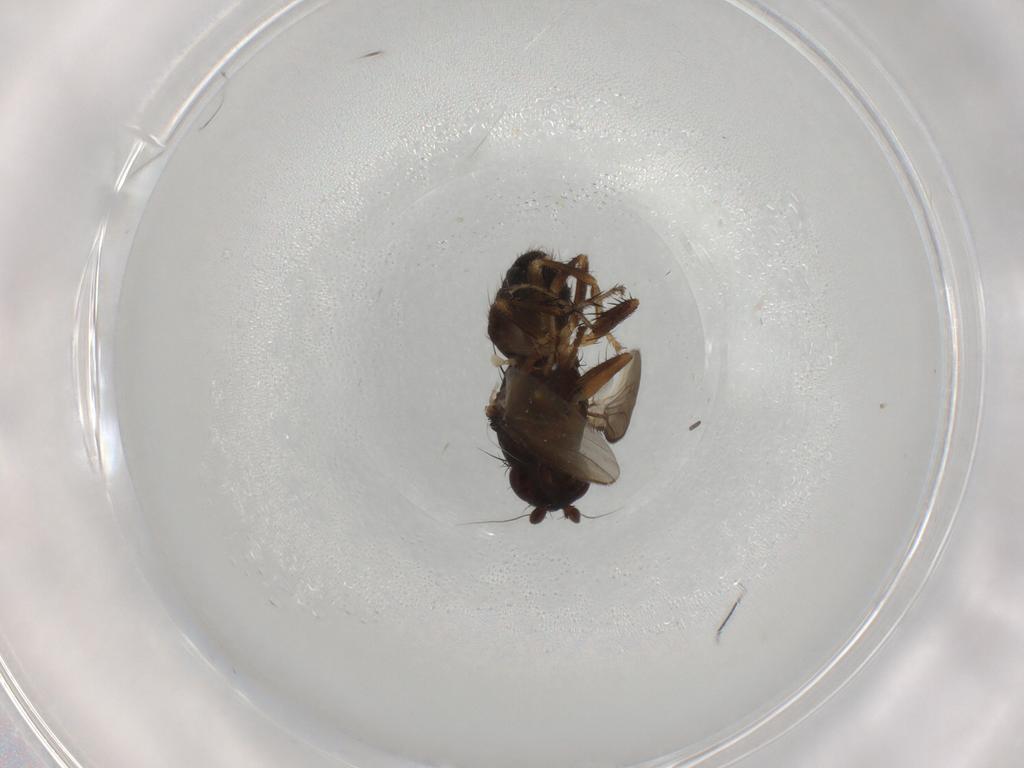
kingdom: Animalia
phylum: Arthropoda
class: Insecta
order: Diptera
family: Sphaeroceridae
